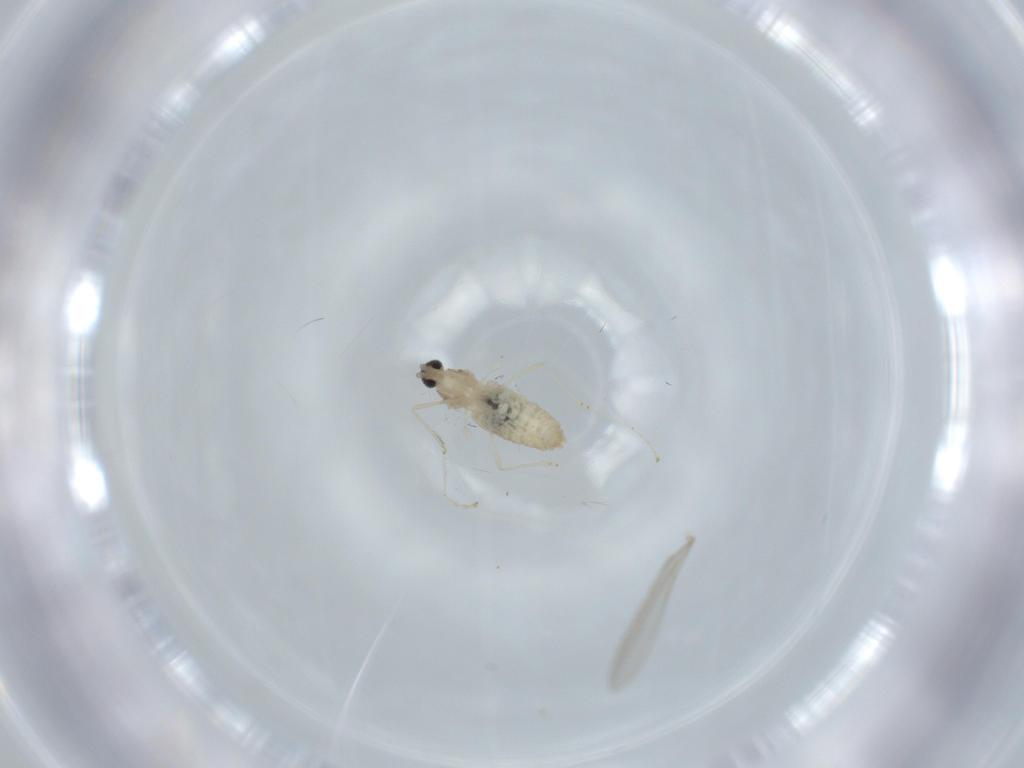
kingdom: Animalia
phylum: Arthropoda
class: Insecta
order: Diptera
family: Cecidomyiidae
